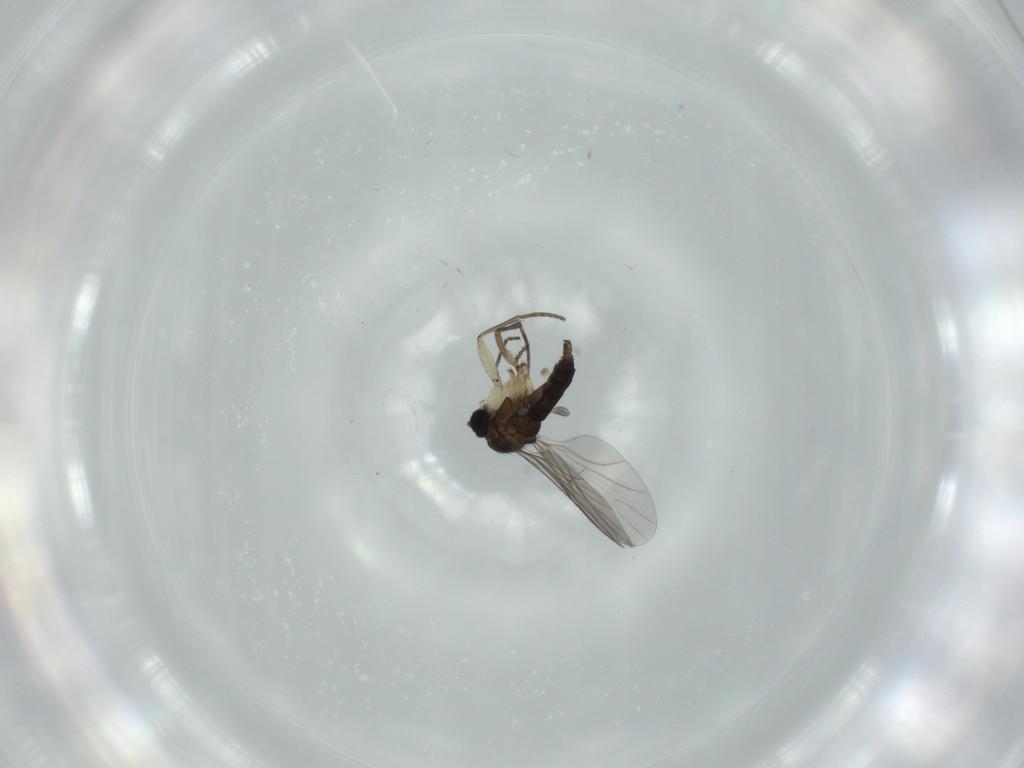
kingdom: Animalia
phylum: Arthropoda
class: Insecta
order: Diptera
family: Sciaridae
